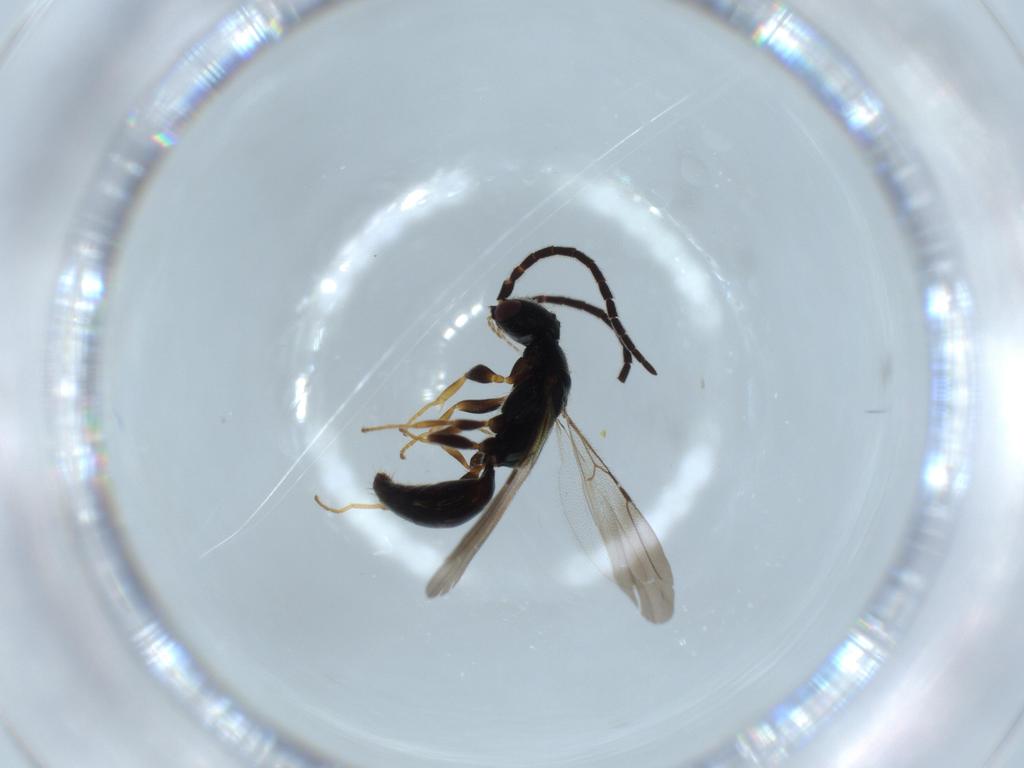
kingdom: Animalia
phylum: Arthropoda
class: Insecta
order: Hymenoptera
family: Bethylidae
